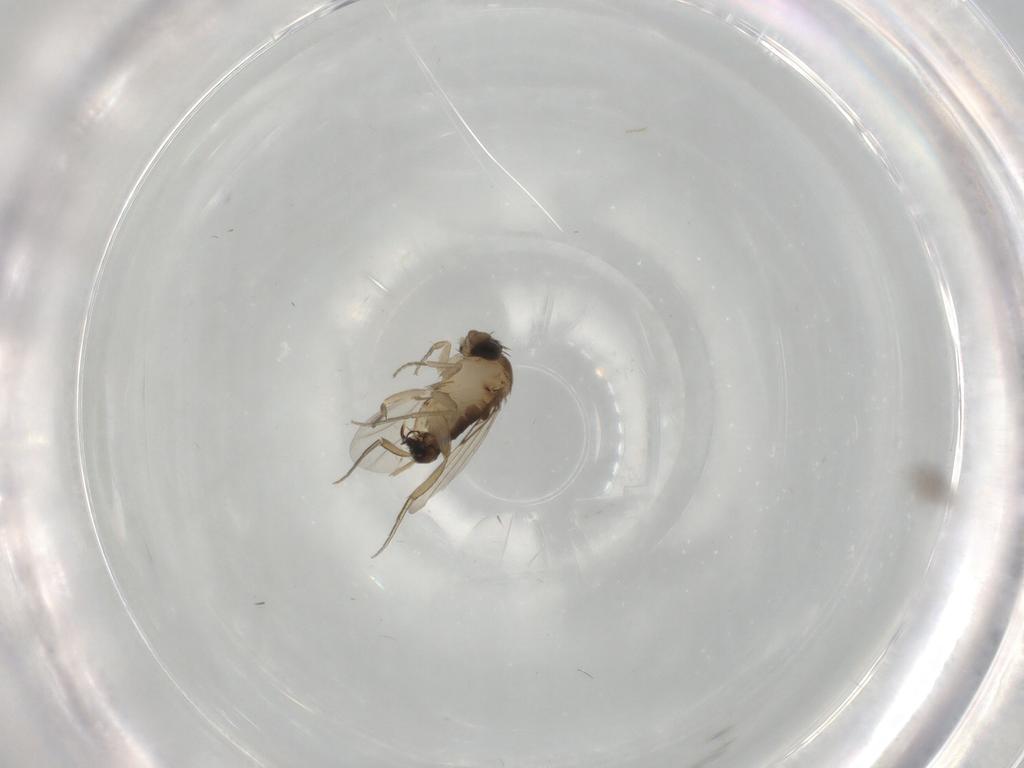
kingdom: Animalia
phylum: Arthropoda
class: Insecta
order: Diptera
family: Phoridae
